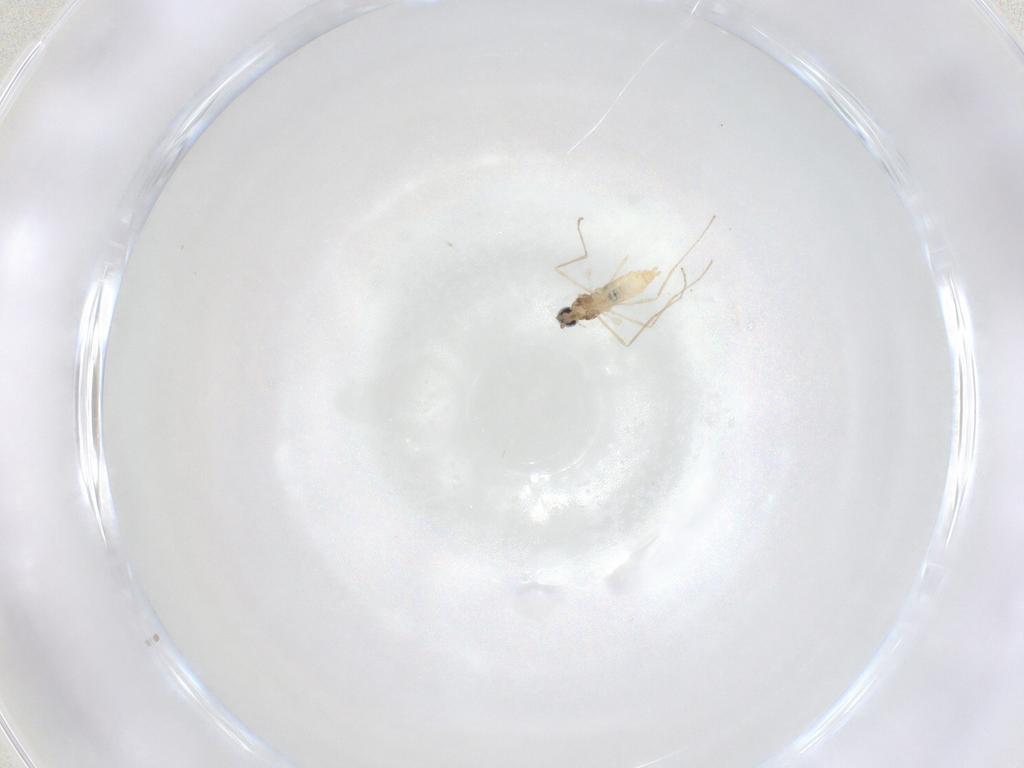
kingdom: Animalia
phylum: Arthropoda
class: Insecta
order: Diptera
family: Cecidomyiidae
